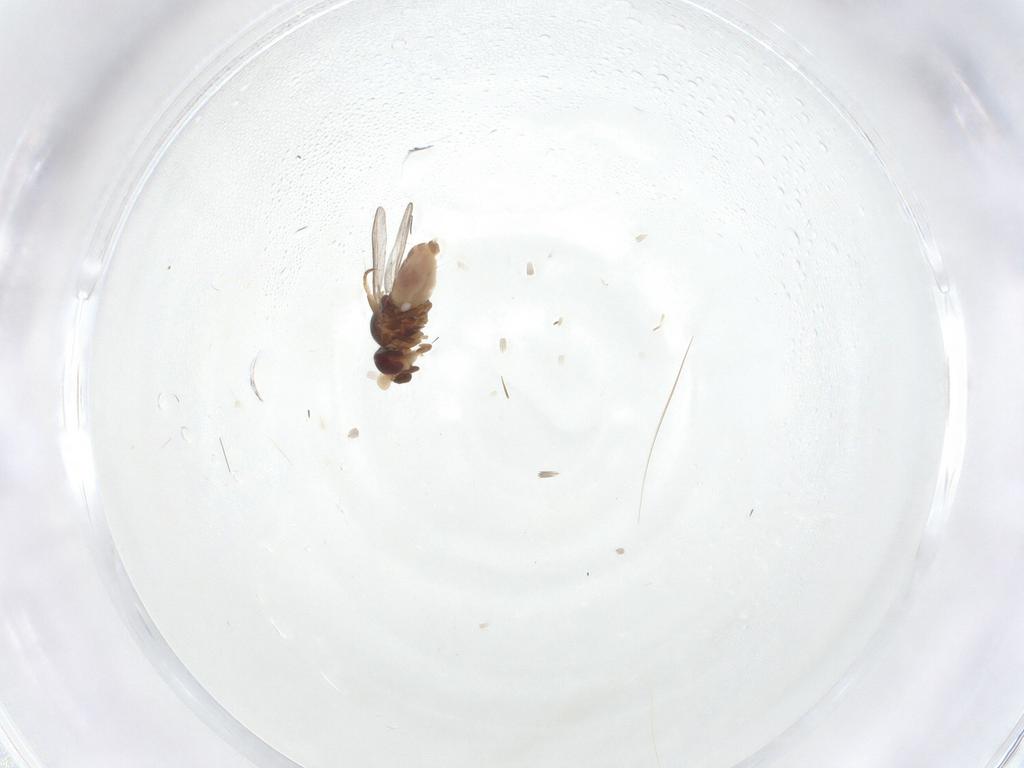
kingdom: Animalia
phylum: Arthropoda
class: Insecta
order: Diptera
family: Chloropidae
